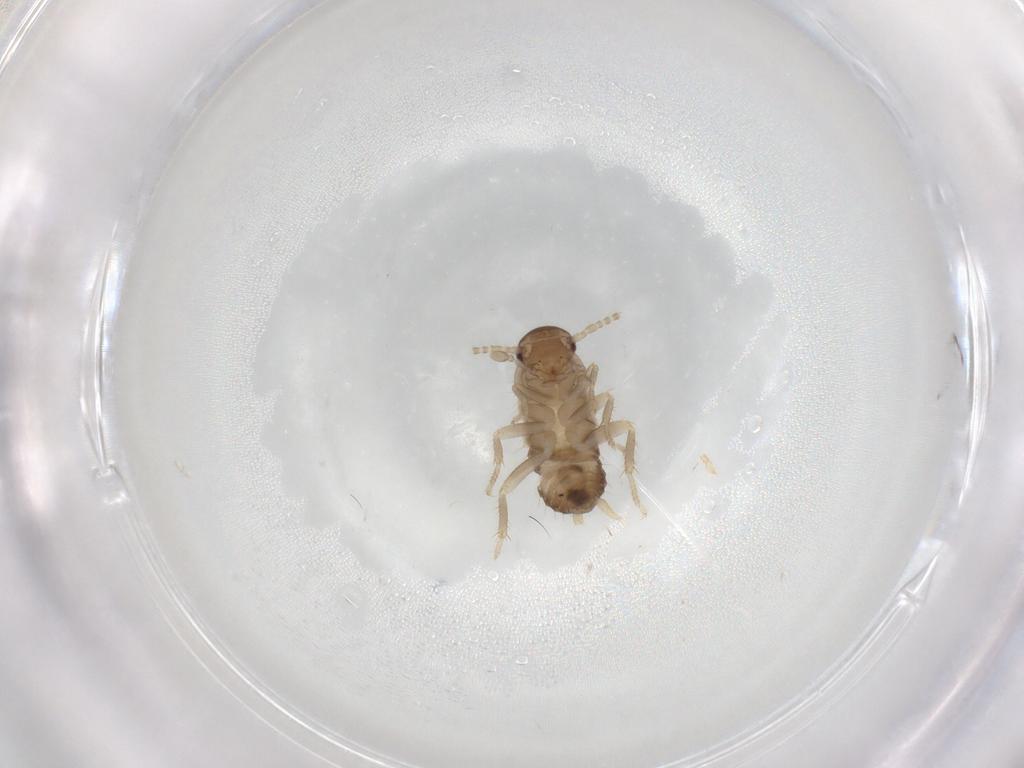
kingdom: Animalia
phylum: Arthropoda
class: Insecta
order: Blattodea
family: Ectobiidae
